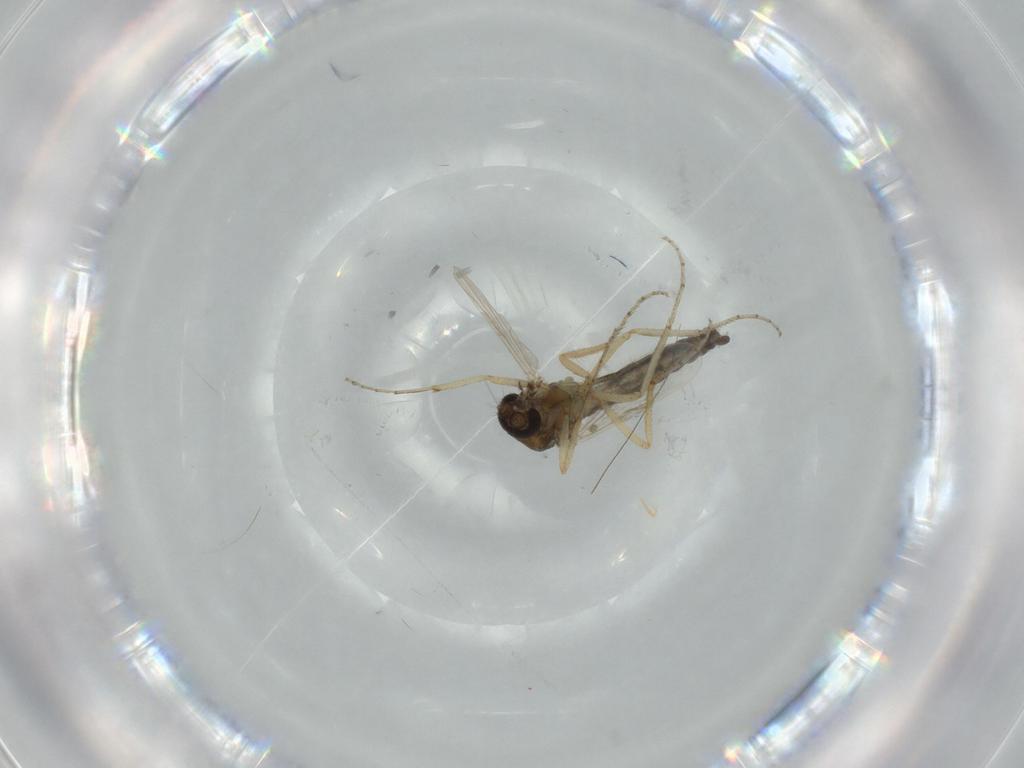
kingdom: Animalia
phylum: Arthropoda
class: Insecta
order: Diptera
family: Ceratopogonidae
